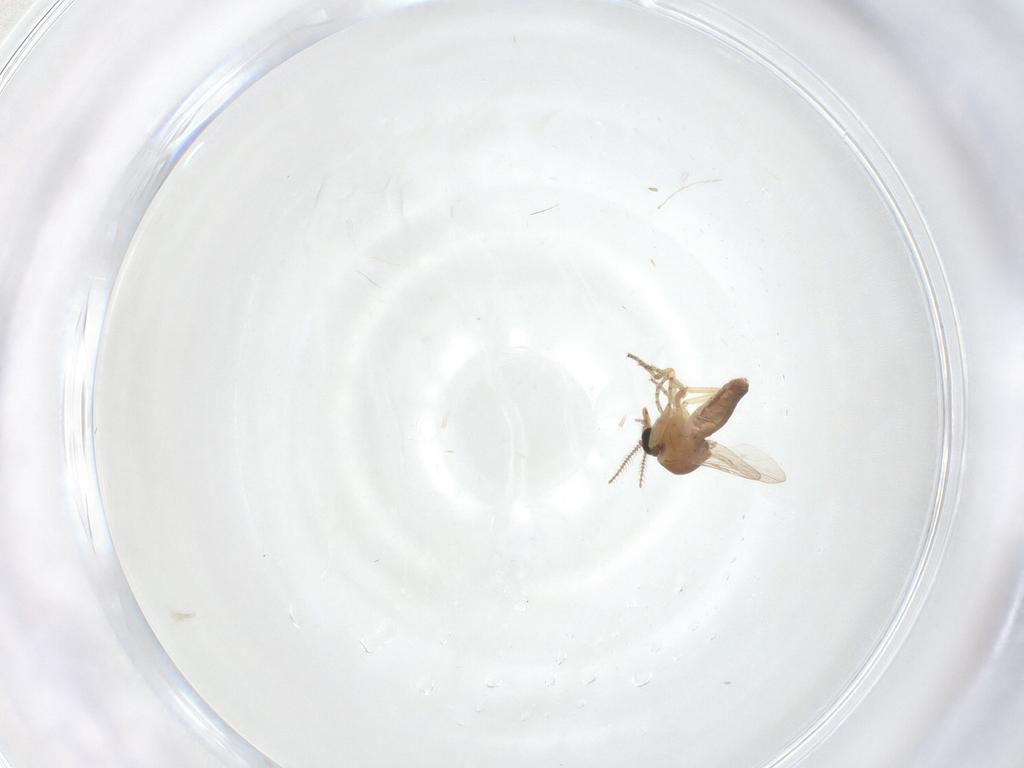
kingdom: Animalia
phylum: Arthropoda
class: Insecta
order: Diptera
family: Ceratopogonidae
